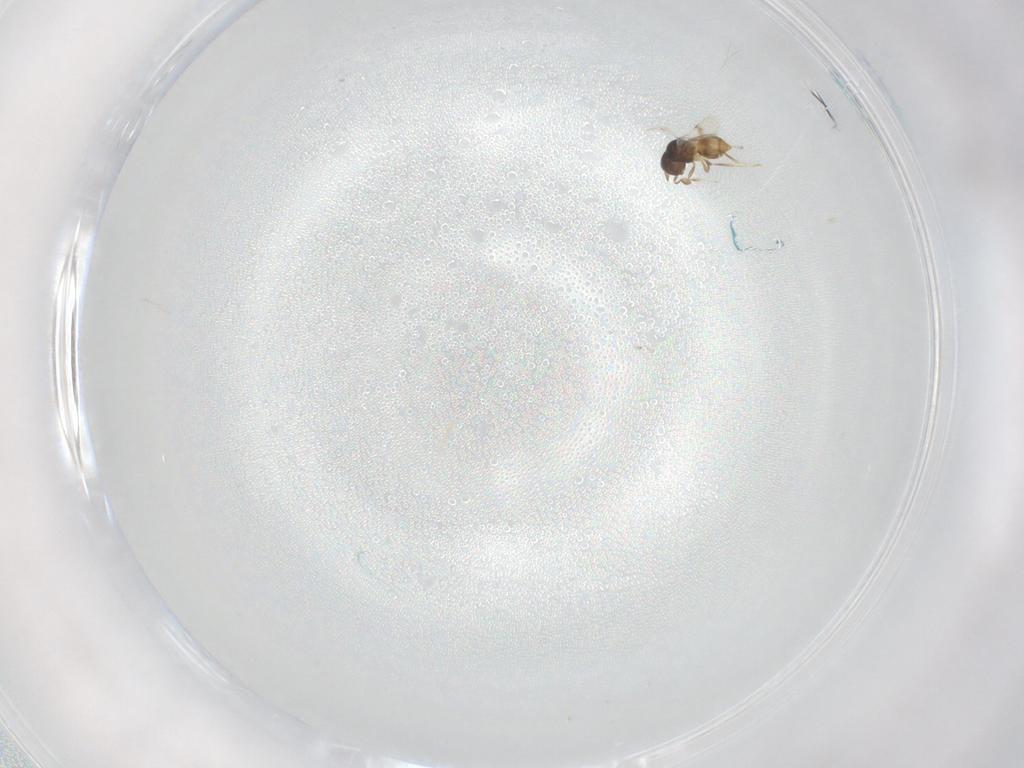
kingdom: Animalia
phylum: Arthropoda
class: Insecta
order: Hymenoptera
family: Scelionidae
